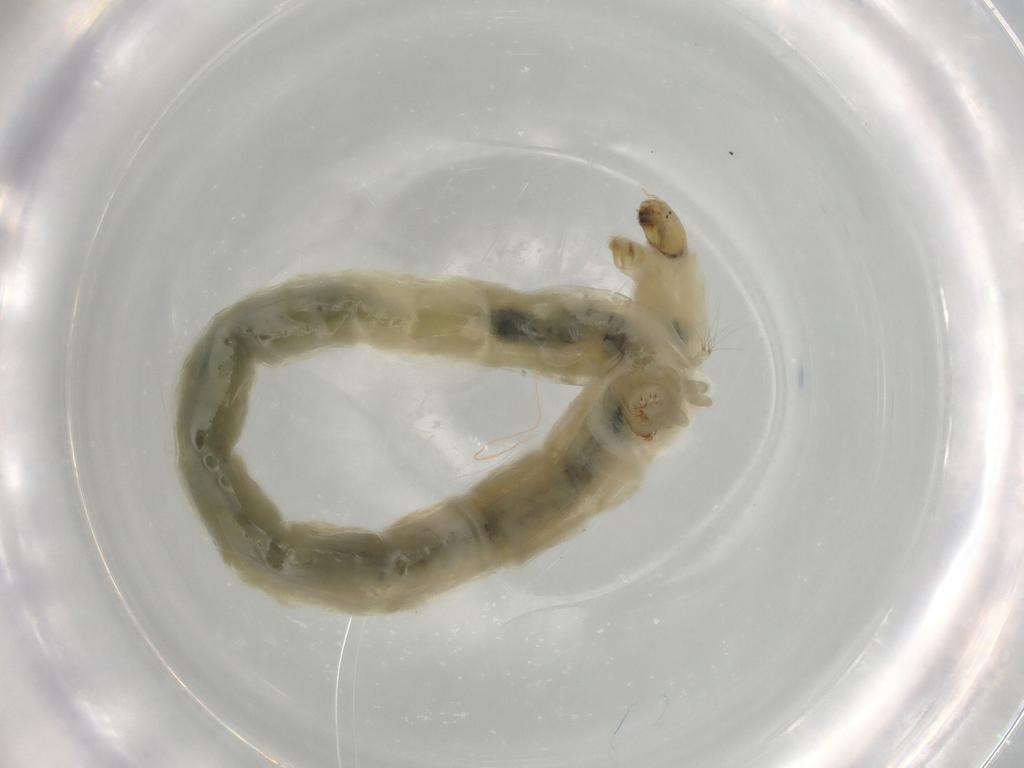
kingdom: Animalia
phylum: Arthropoda
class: Insecta
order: Diptera
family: Chironomidae
